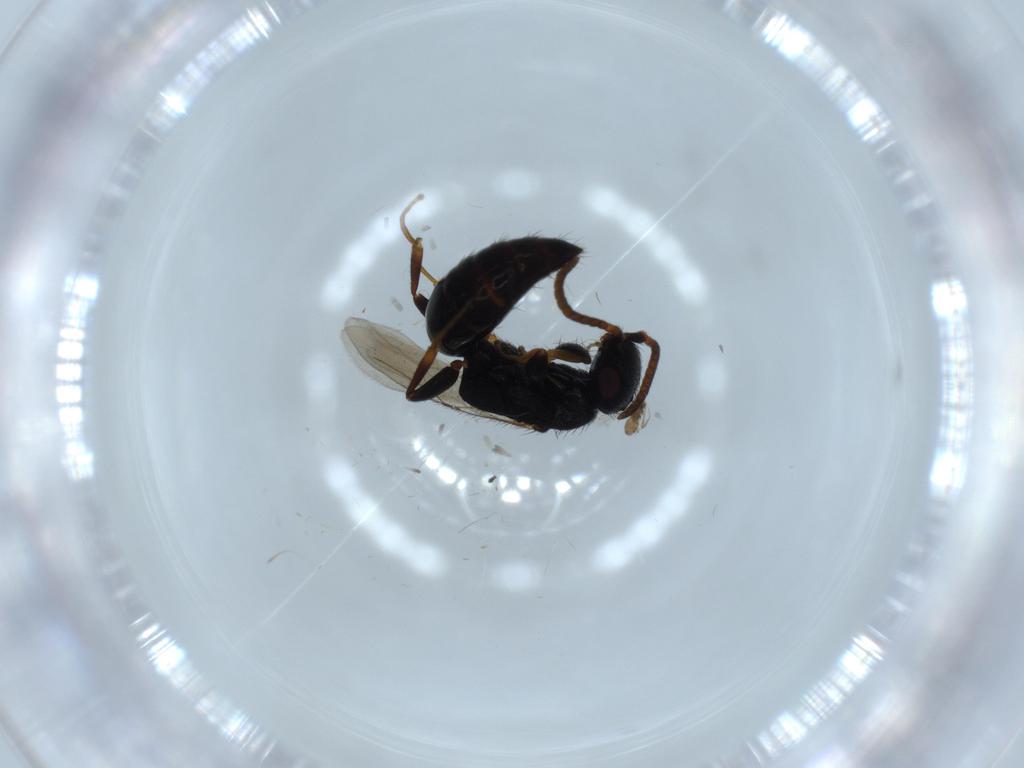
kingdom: Animalia
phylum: Arthropoda
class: Insecta
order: Hymenoptera
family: Bethylidae
